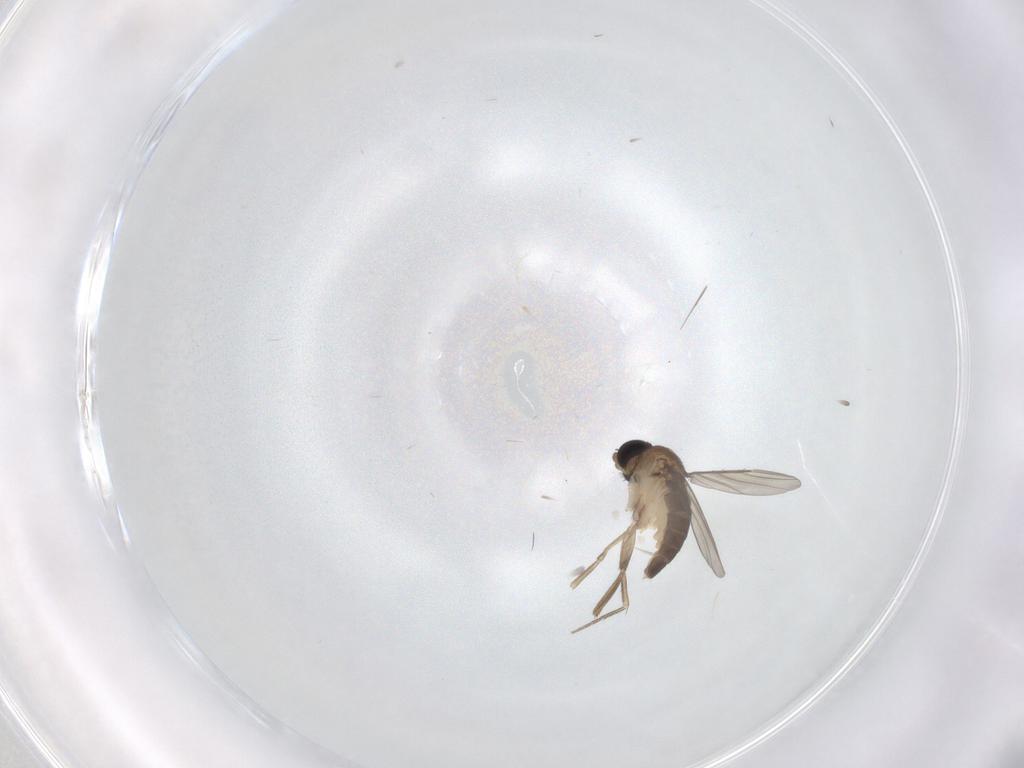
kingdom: Animalia
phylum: Arthropoda
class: Insecta
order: Diptera
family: Phoridae
